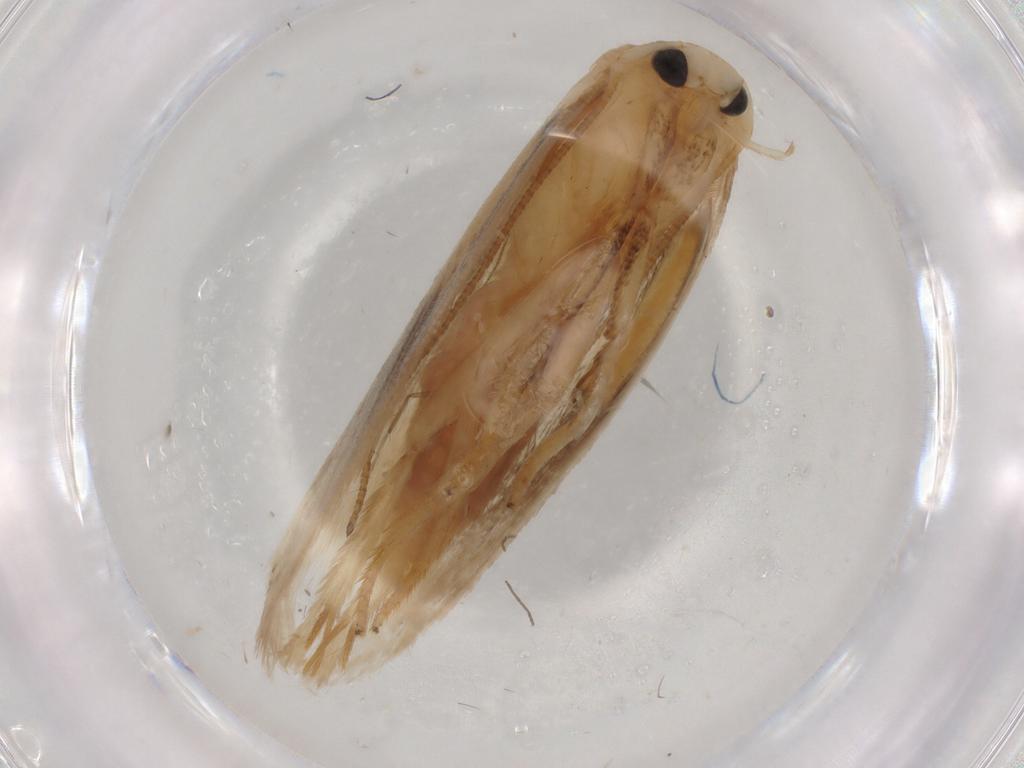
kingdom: Animalia
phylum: Arthropoda
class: Insecta
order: Lepidoptera
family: Geometridae
